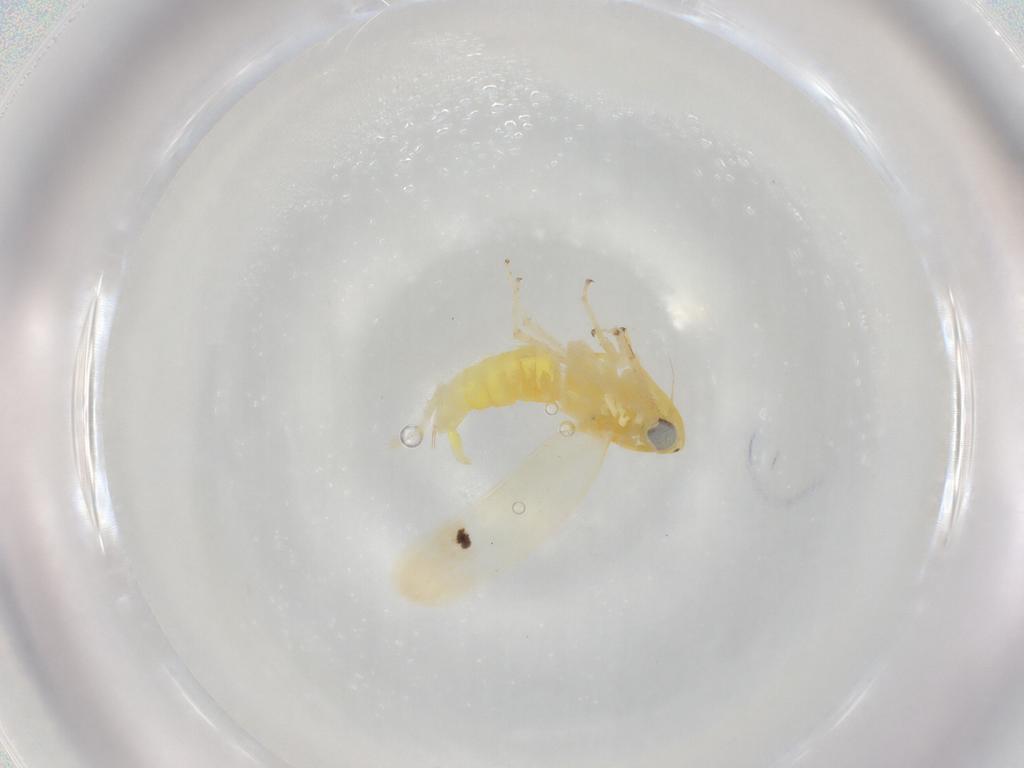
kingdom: Animalia
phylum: Arthropoda
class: Insecta
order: Hemiptera
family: Cicadellidae
